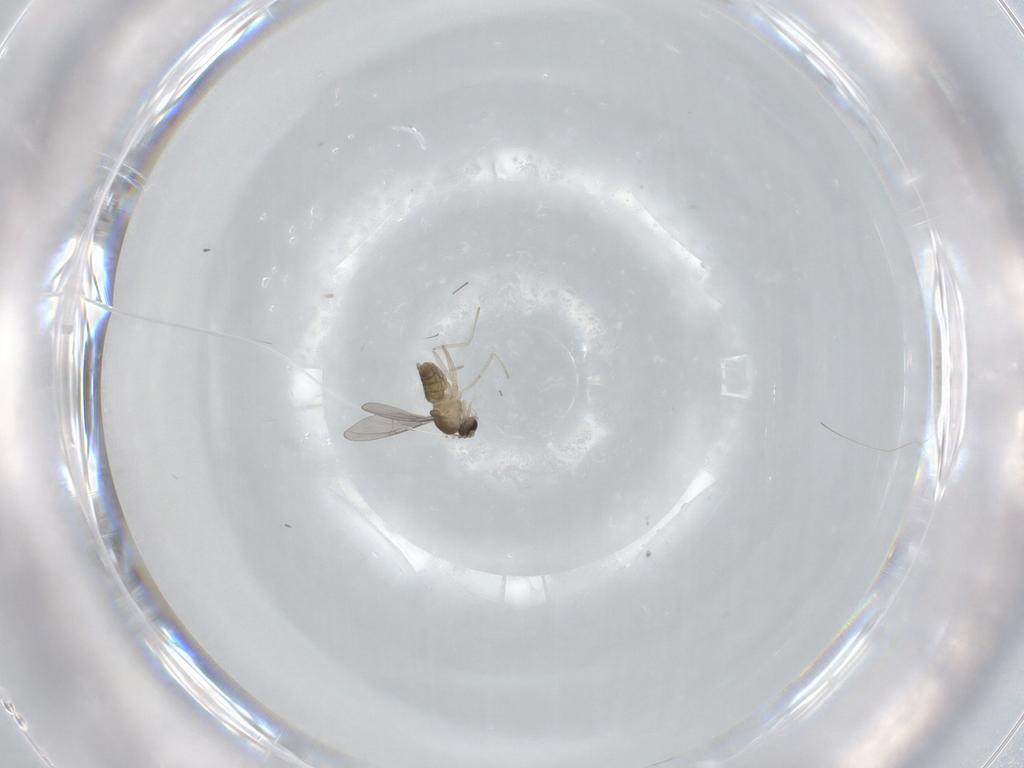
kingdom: Animalia
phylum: Arthropoda
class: Insecta
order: Diptera
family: Cecidomyiidae
